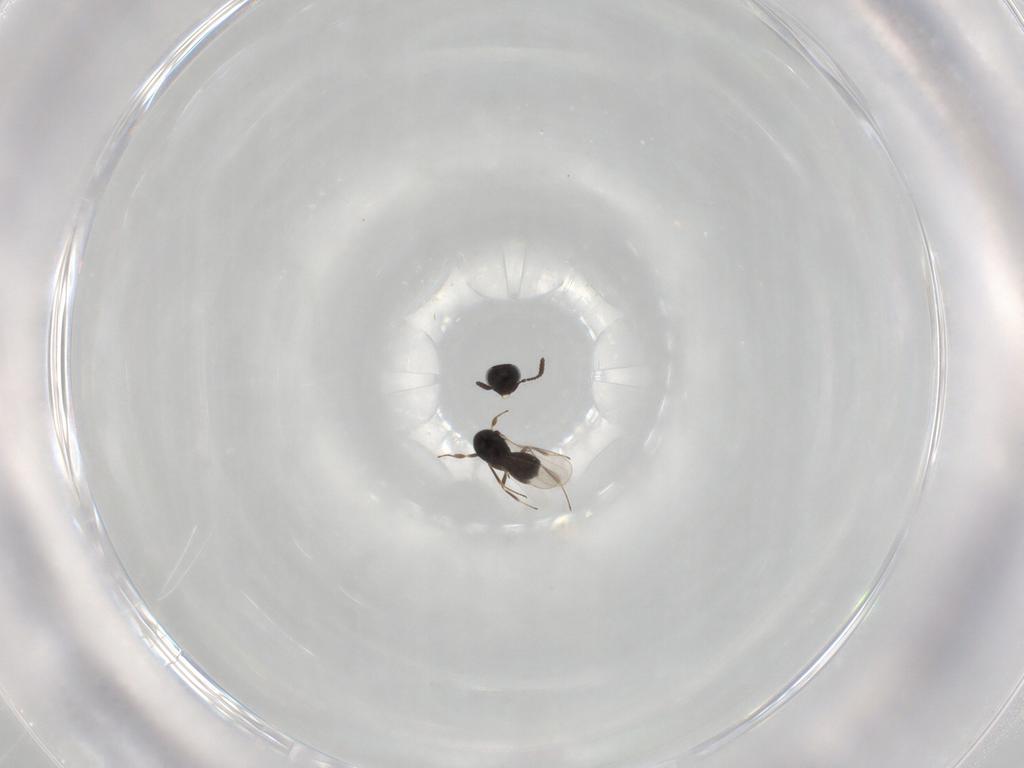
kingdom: Animalia
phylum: Arthropoda
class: Insecta
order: Hymenoptera
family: Scelionidae
